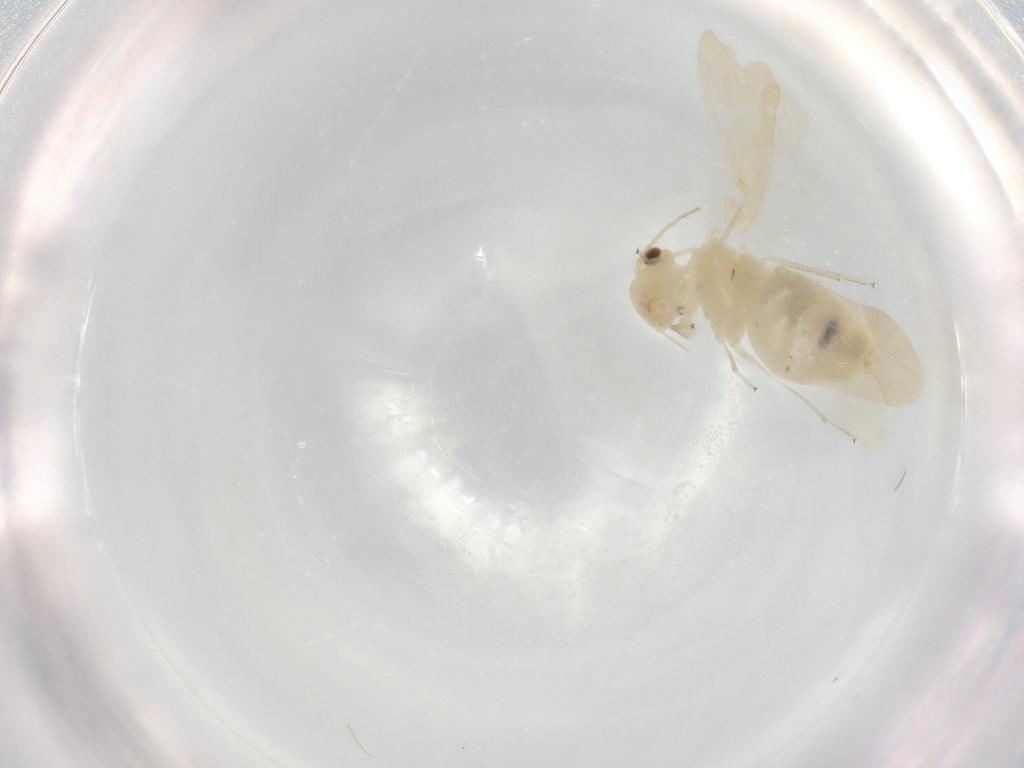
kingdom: Animalia
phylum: Arthropoda
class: Insecta
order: Psocodea
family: Caeciliusidae
